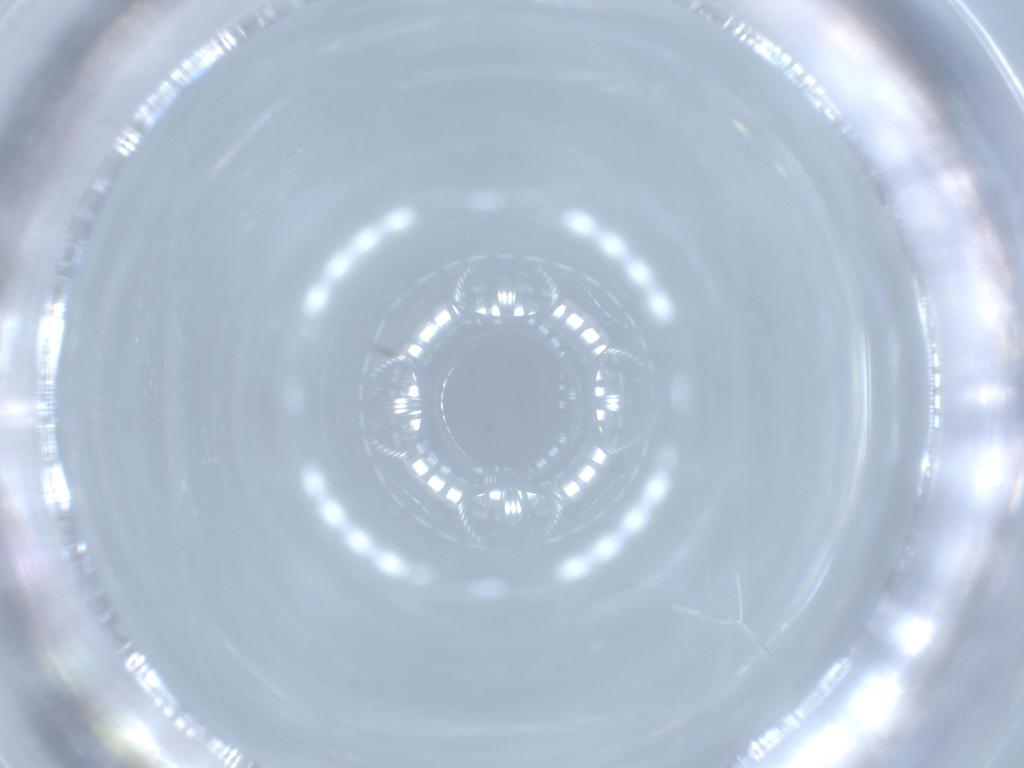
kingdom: Animalia
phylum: Arthropoda
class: Insecta
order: Diptera
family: Cecidomyiidae
